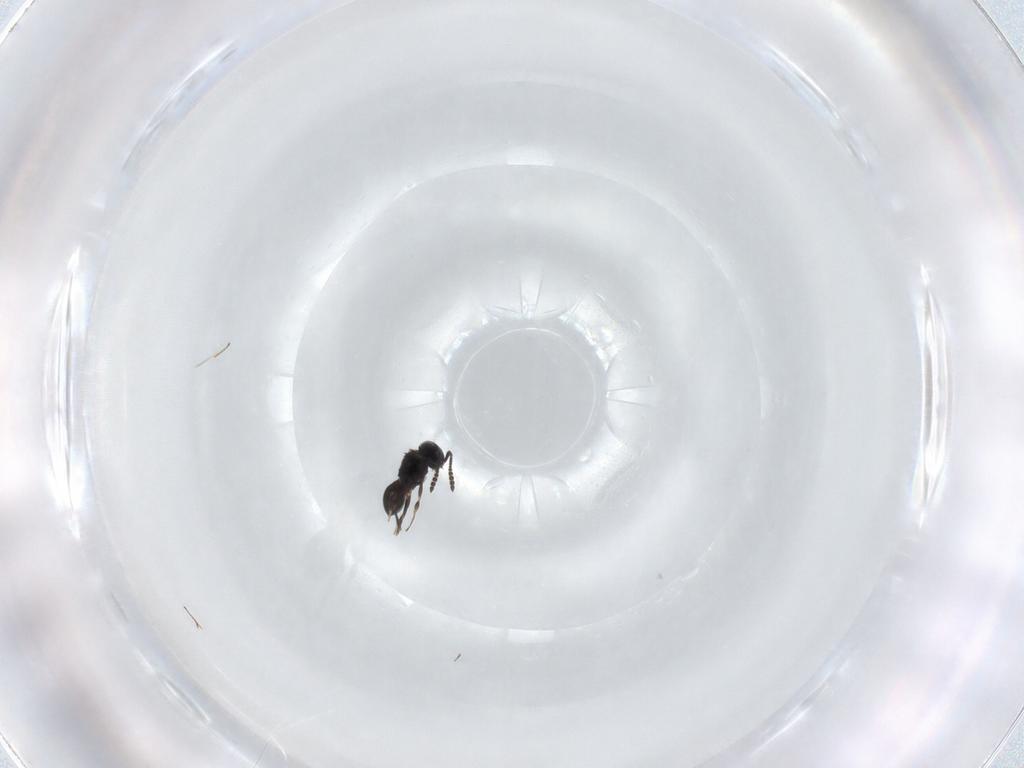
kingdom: Animalia
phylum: Arthropoda
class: Insecta
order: Hymenoptera
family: Scelionidae
